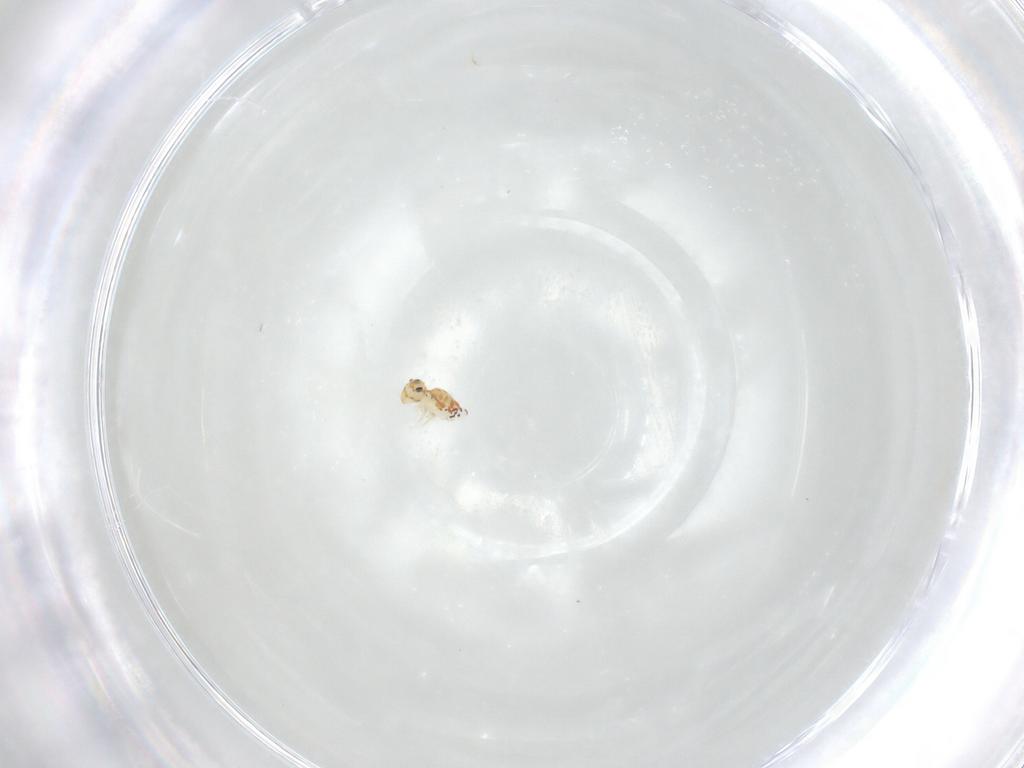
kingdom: Animalia
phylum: Arthropoda
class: Collembola
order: Symphypleona
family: Bourletiellidae
